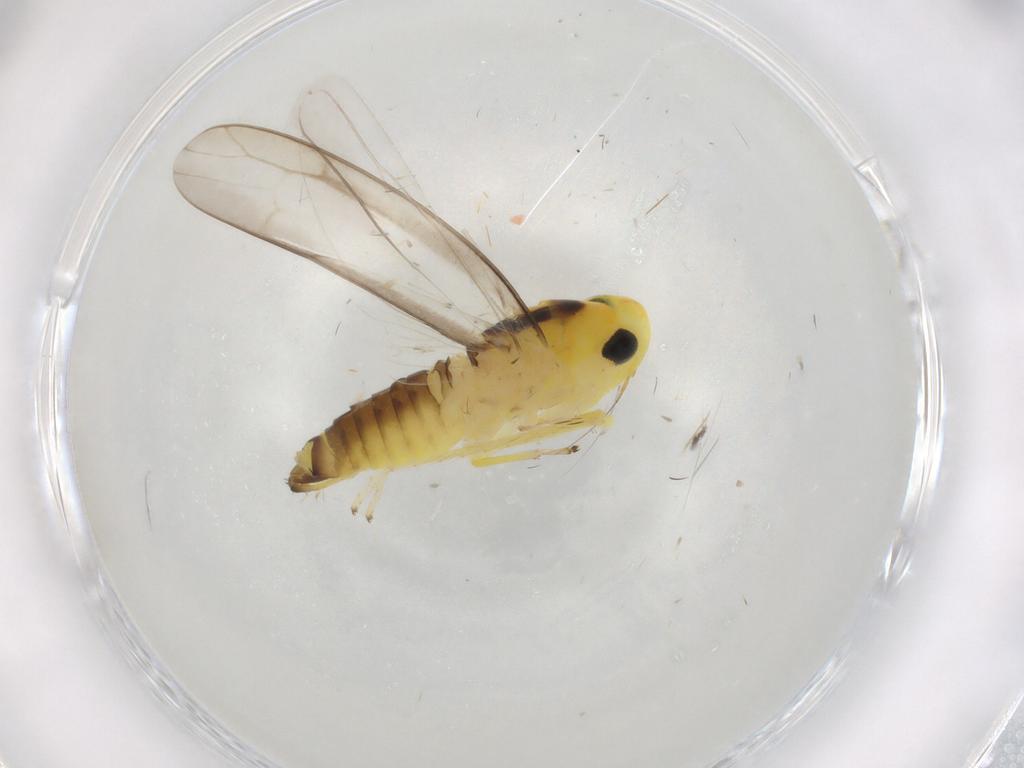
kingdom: Animalia
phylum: Arthropoda
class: Insecta
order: Hemiptera
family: Cicadellidae
